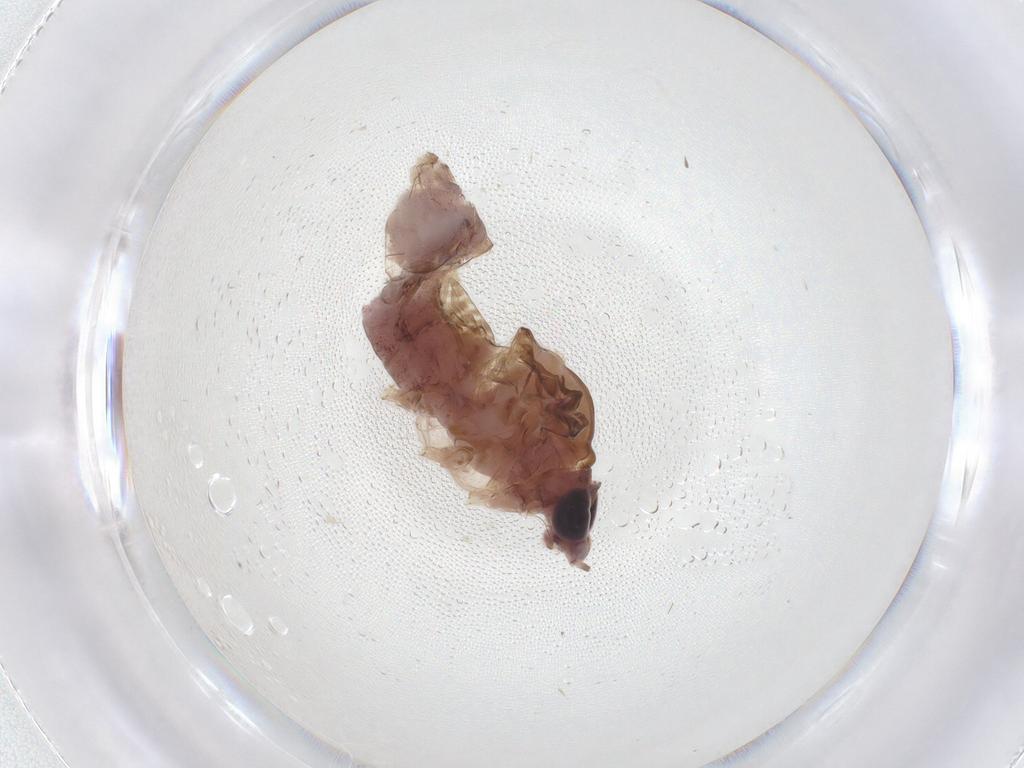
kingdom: Animalia
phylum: Arthropoda
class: Insecta
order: Diptera
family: Ceratopogonidae
